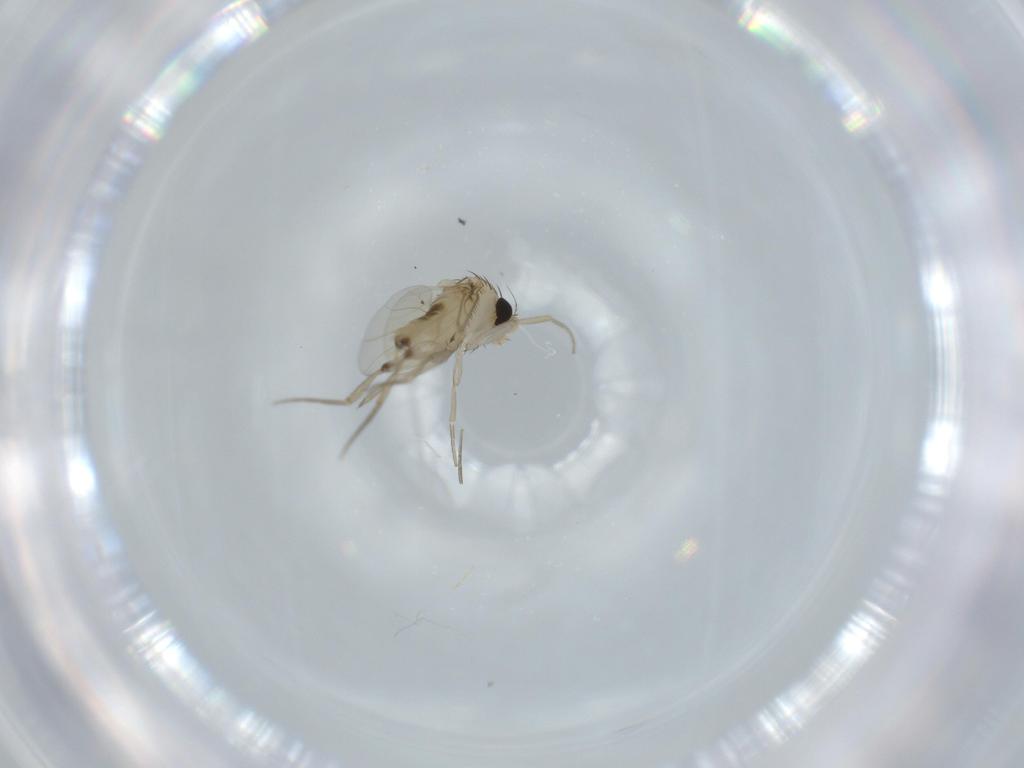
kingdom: Animalia
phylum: Arthropoda
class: Insecta
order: Diptera
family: Phoridae
